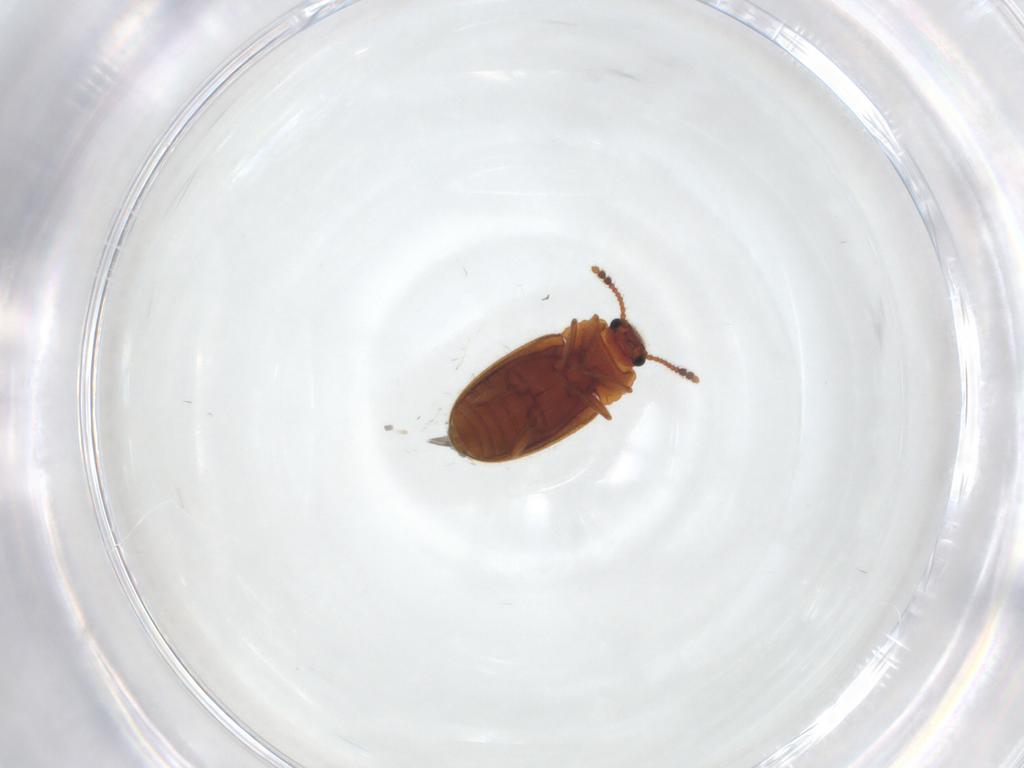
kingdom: Animalia
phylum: Arthropoda
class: Insecta
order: Coleoptera
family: Erotylidae
